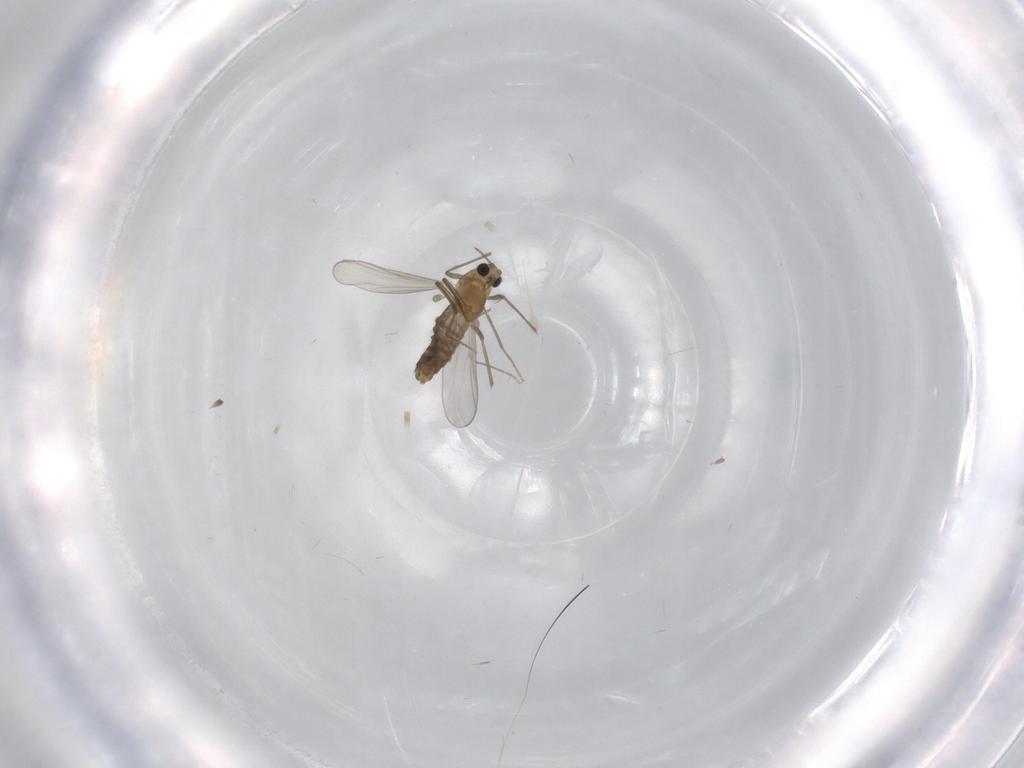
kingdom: Animalia
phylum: Arthropoda
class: Insecta
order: Diptera
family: Chironomidae
